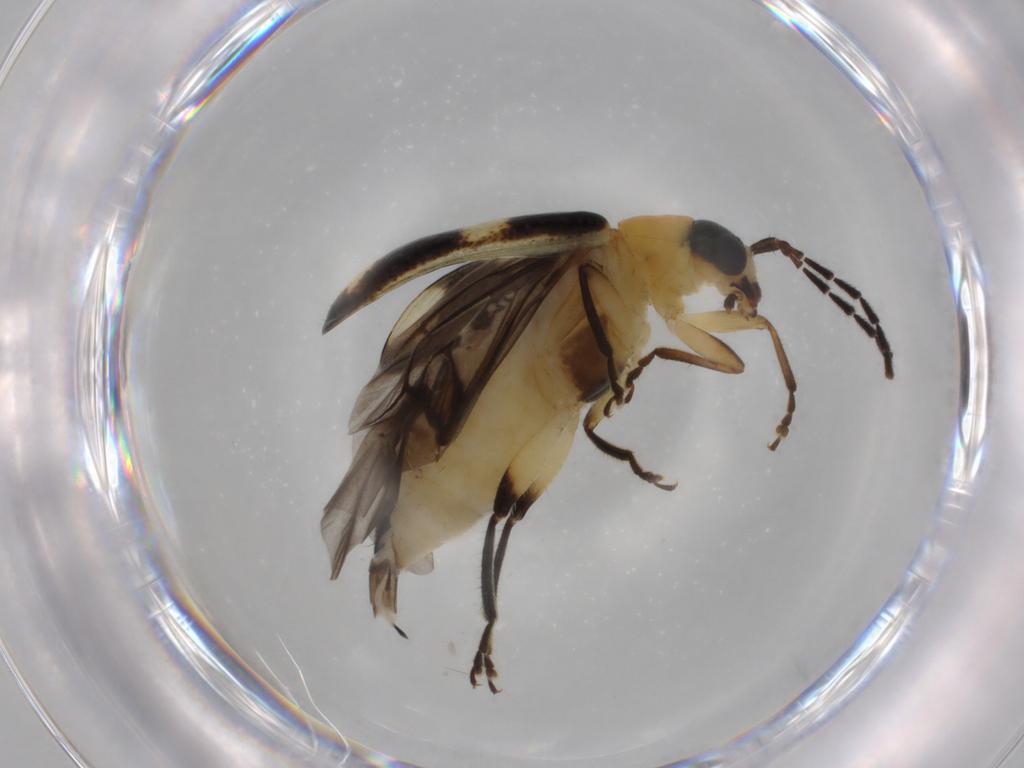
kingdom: Animalia
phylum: Arthropoda
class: Insecta
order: Coleoptera
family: Chrysomelidae
